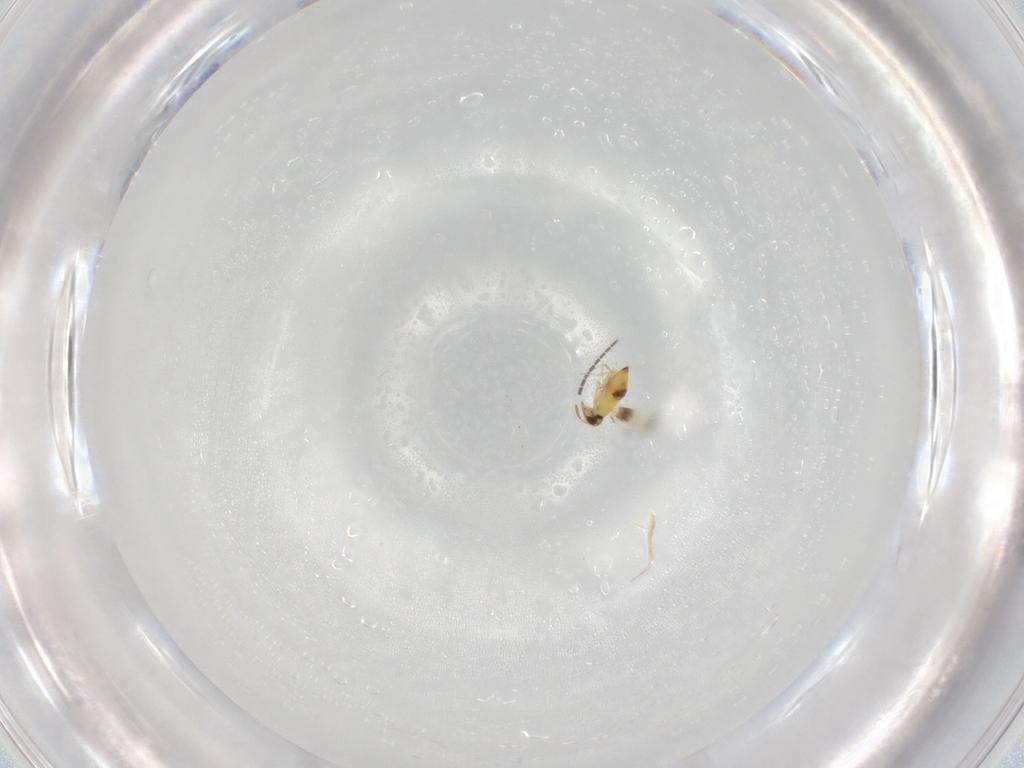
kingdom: Animalia
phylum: Arthropoda
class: Insecta
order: Hymenoptera
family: Signiphoridae
